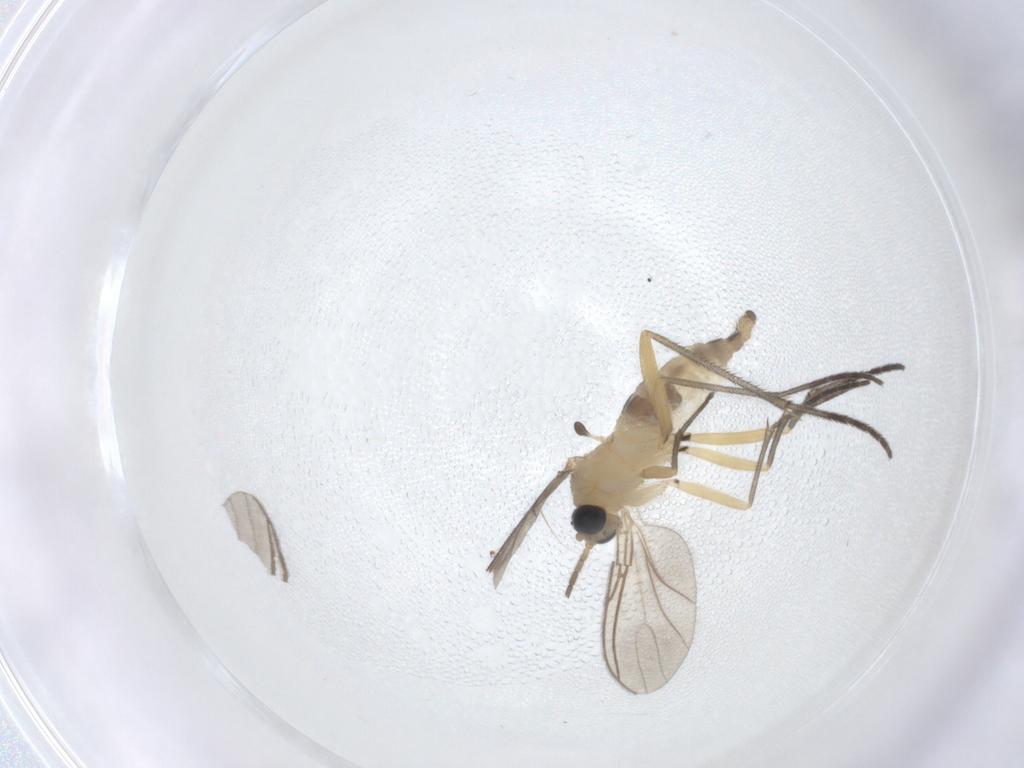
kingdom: Animalia
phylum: Arthropoda
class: Insecta
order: Diptera
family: Sciaridae
